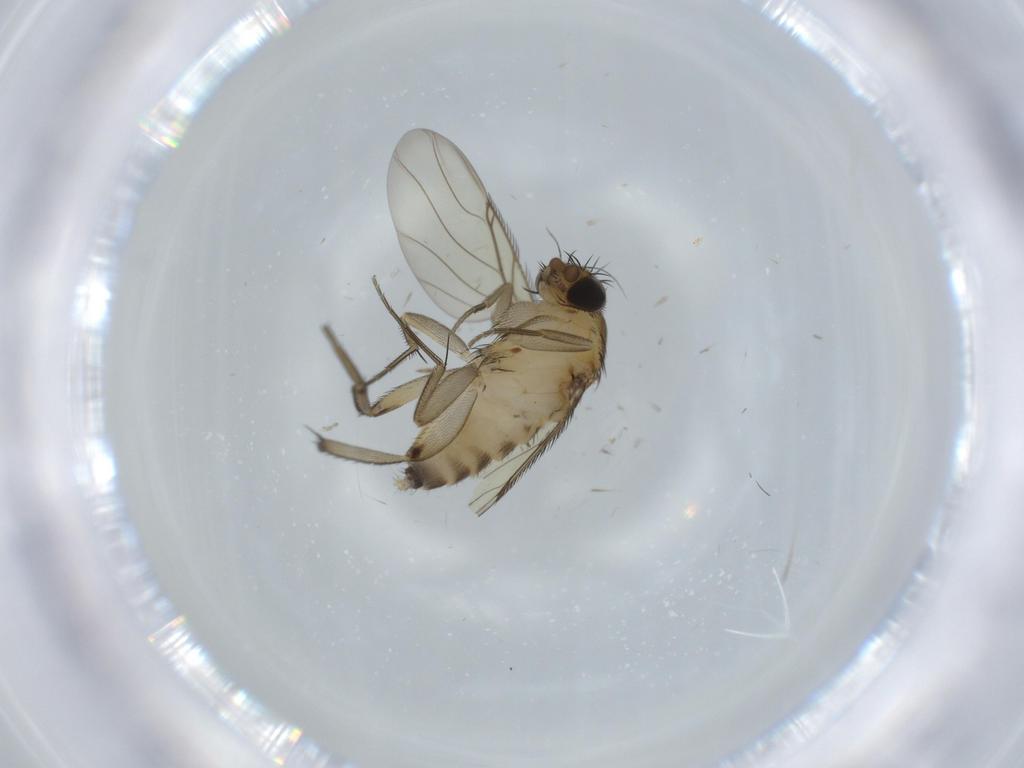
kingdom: Animalia
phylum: Arthropoda
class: Insecta
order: Diptera
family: Phoridae
